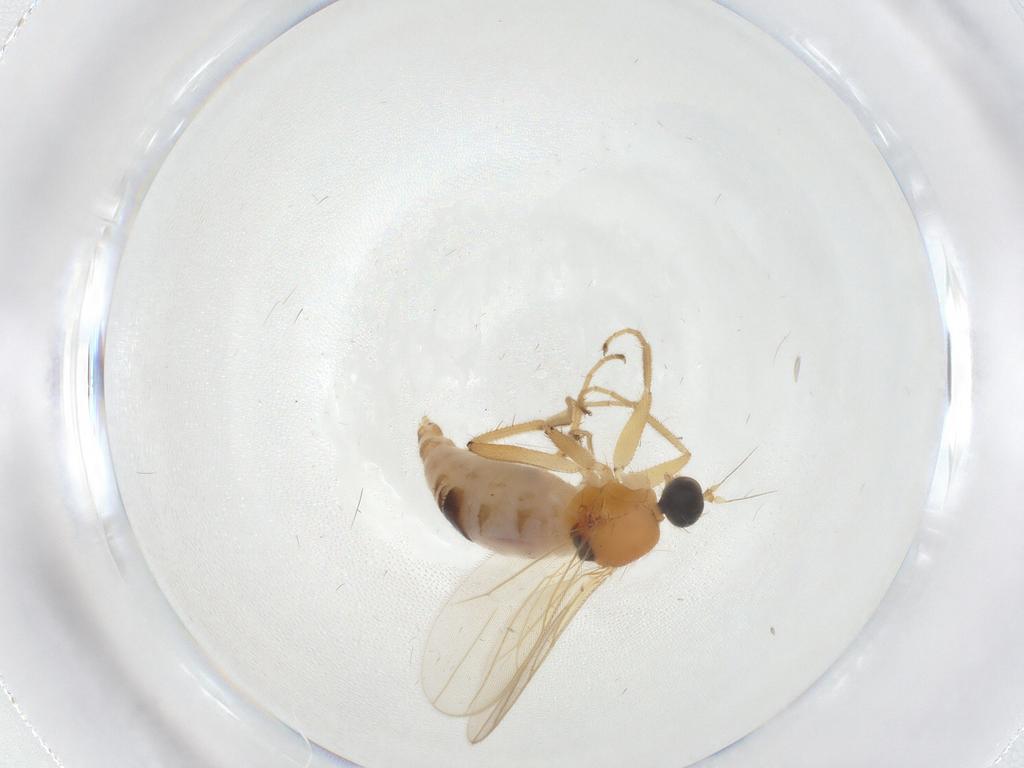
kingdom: Animalia
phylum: Arthropoda
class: Insecta
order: Diptera
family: Hybotidae
